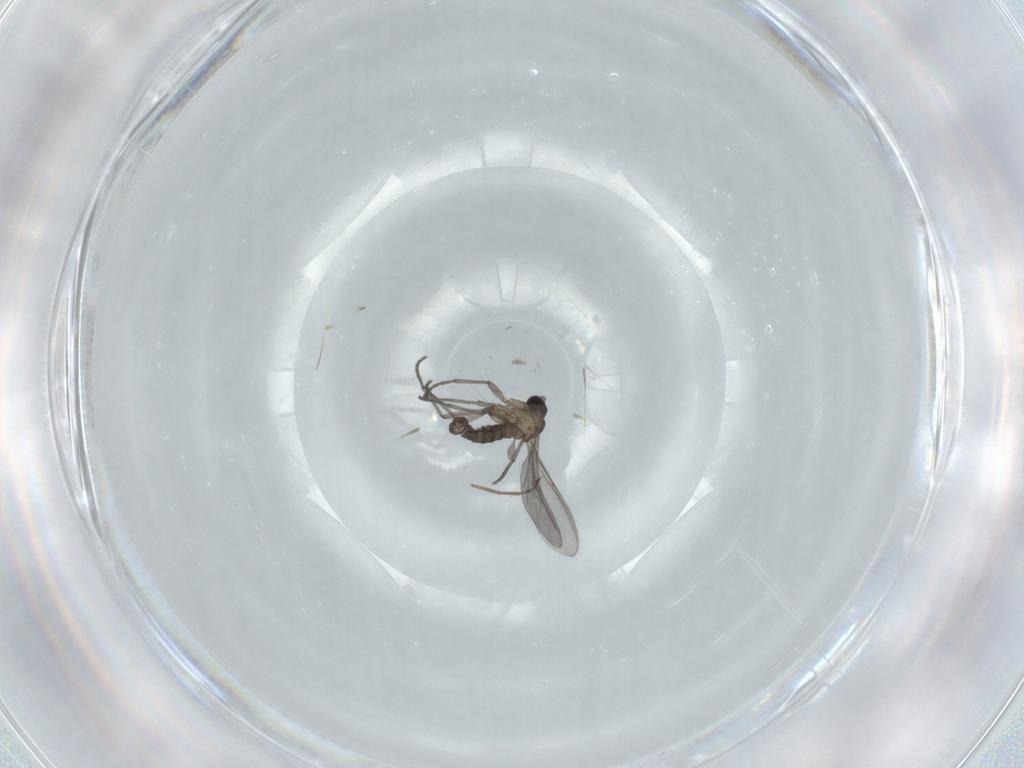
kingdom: Animalia
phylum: Arthropoda
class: Insecta
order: Diptera
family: Sciaridae
